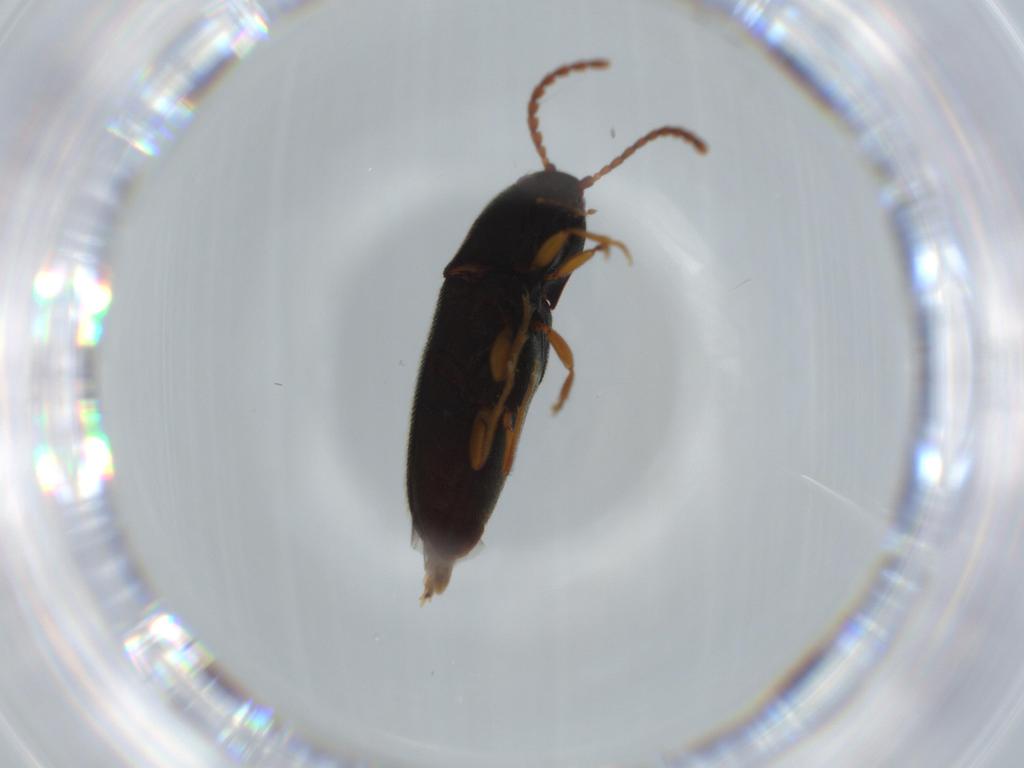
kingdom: Animalia
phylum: Arthropoda
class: Insecta
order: Coleoptera
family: Elateridae
